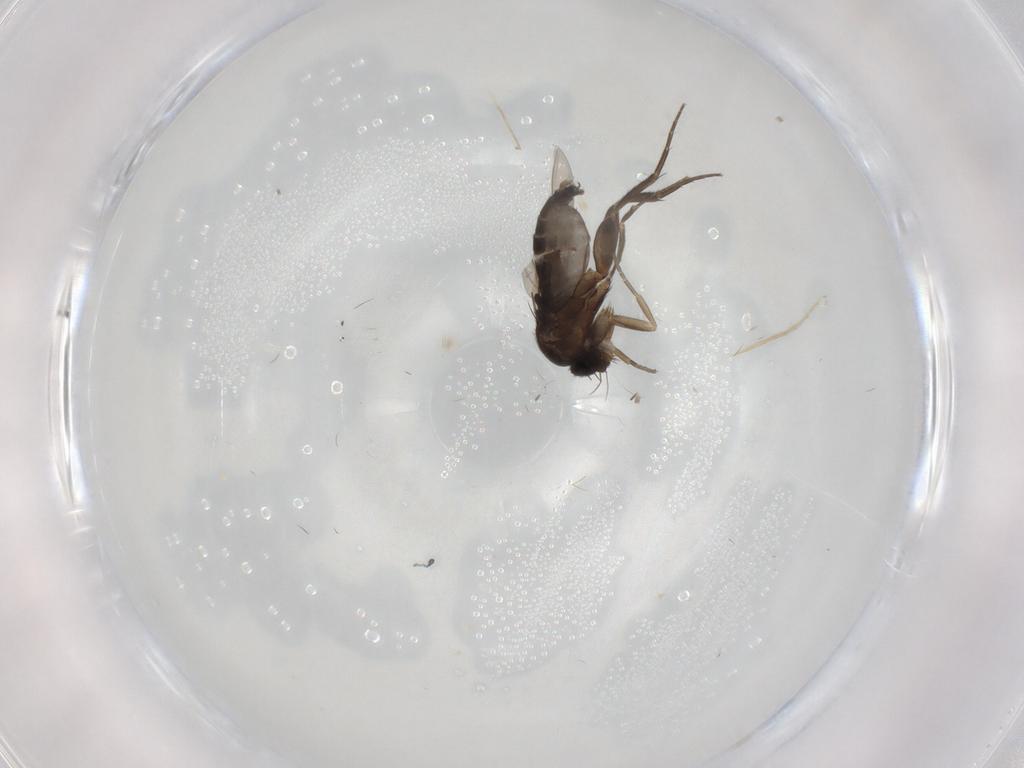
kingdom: Animalia
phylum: Arthropoda
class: Insecta
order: Diptera
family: Phoridae
